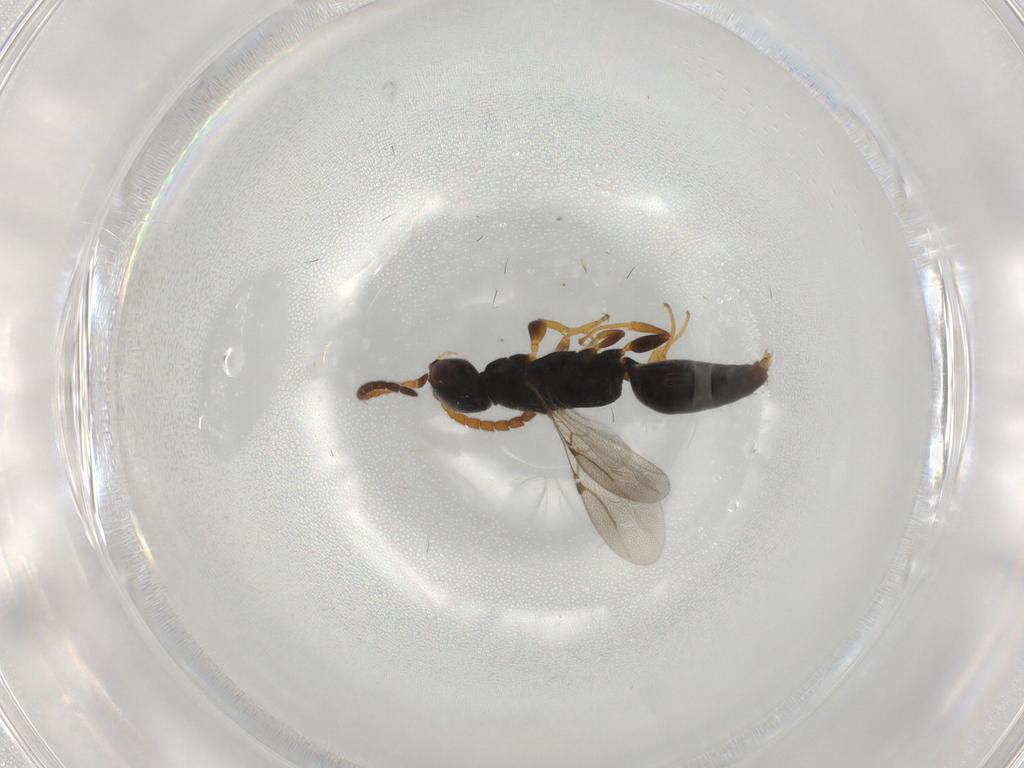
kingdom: Animalia
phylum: Arthropoda
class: Insecta
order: Hymenoptera
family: Bethylidae
